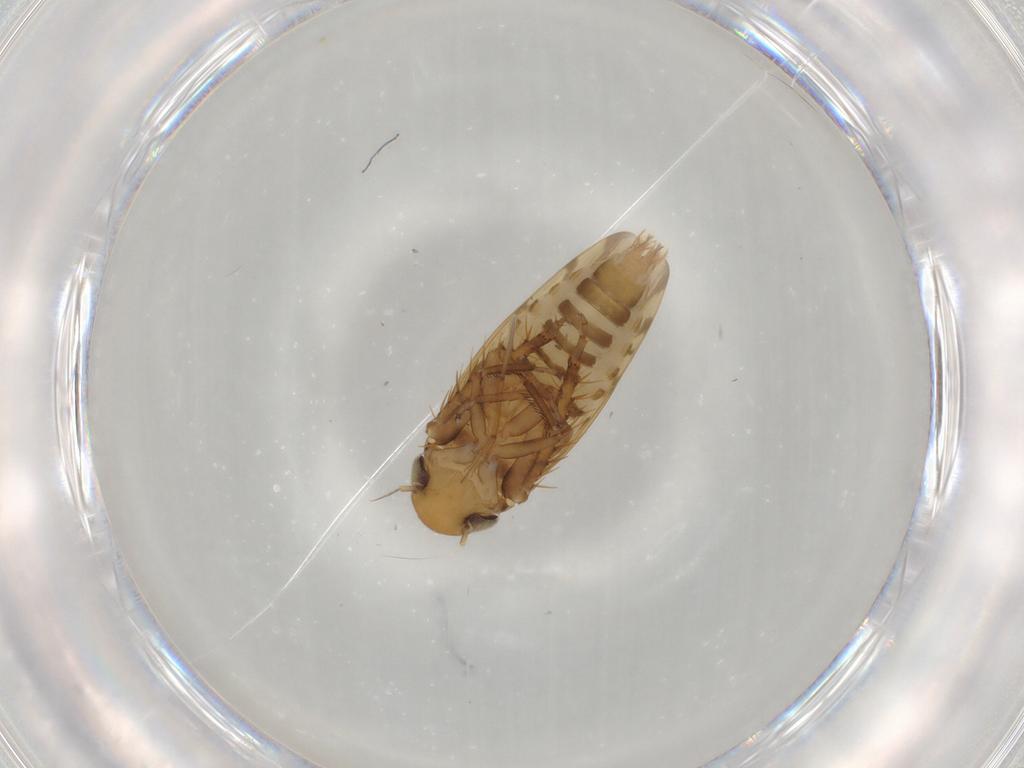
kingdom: Animalia
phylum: Arthropoda
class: Insecta
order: Hemiptera
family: Cicadellidae
